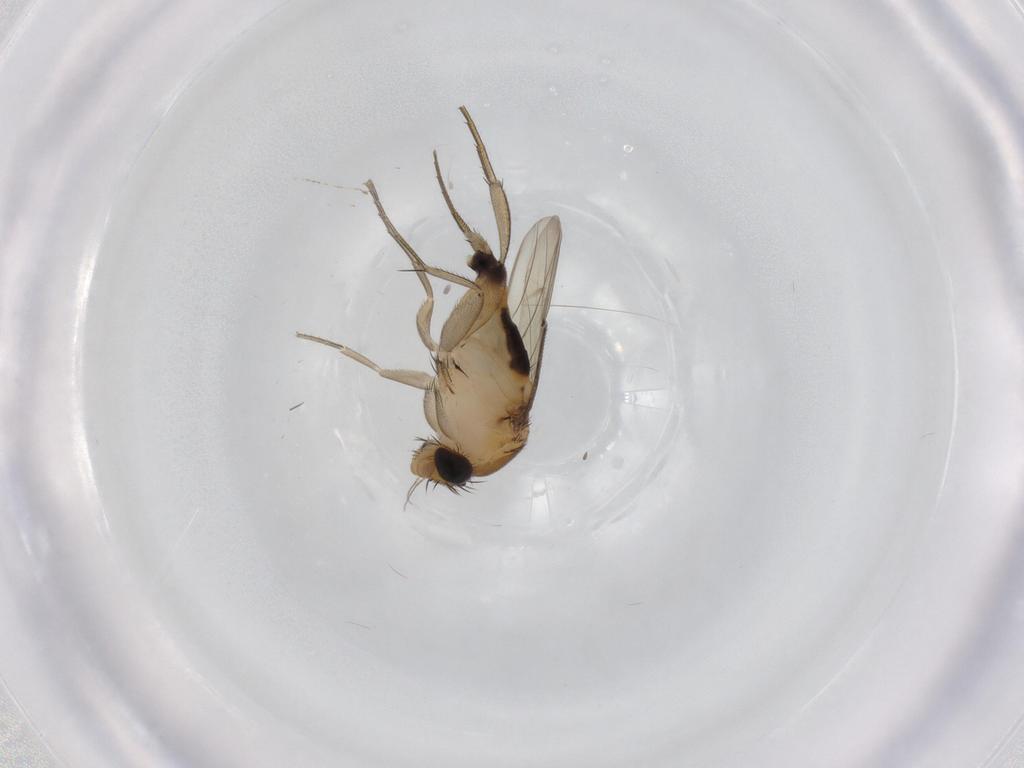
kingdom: Animalia
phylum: Arthropoda
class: Insecta
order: Diptera
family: Phoridae
